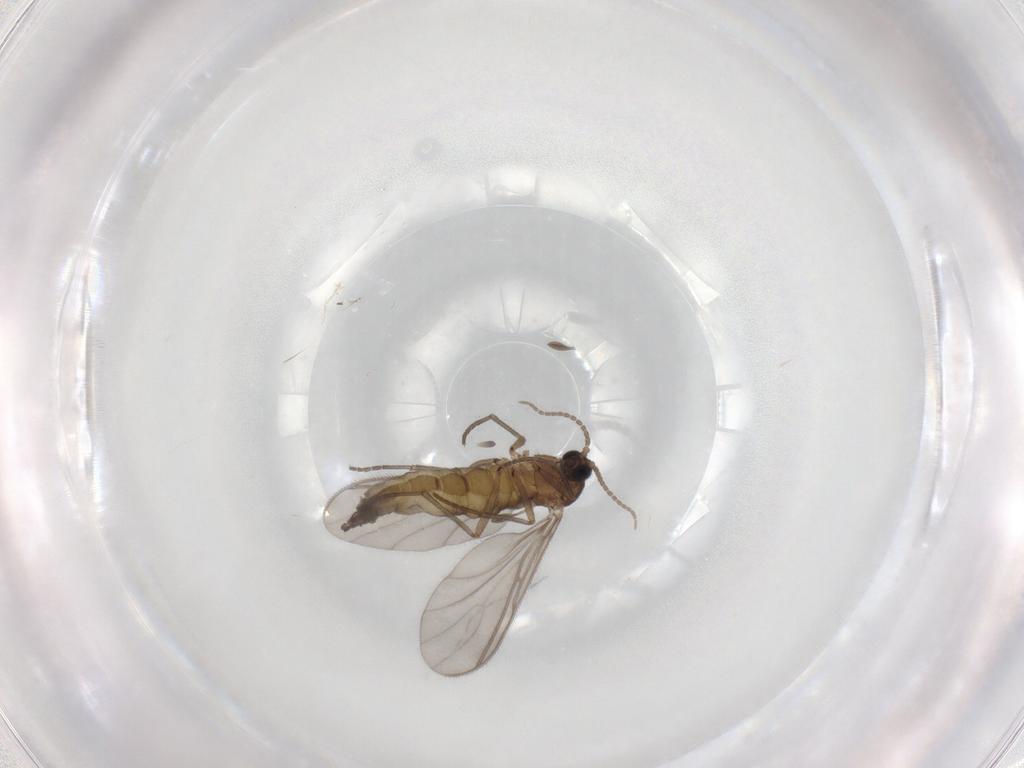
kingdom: Animalia
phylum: Arthropoda
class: Insecta
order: Diptera
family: Sciaridae
